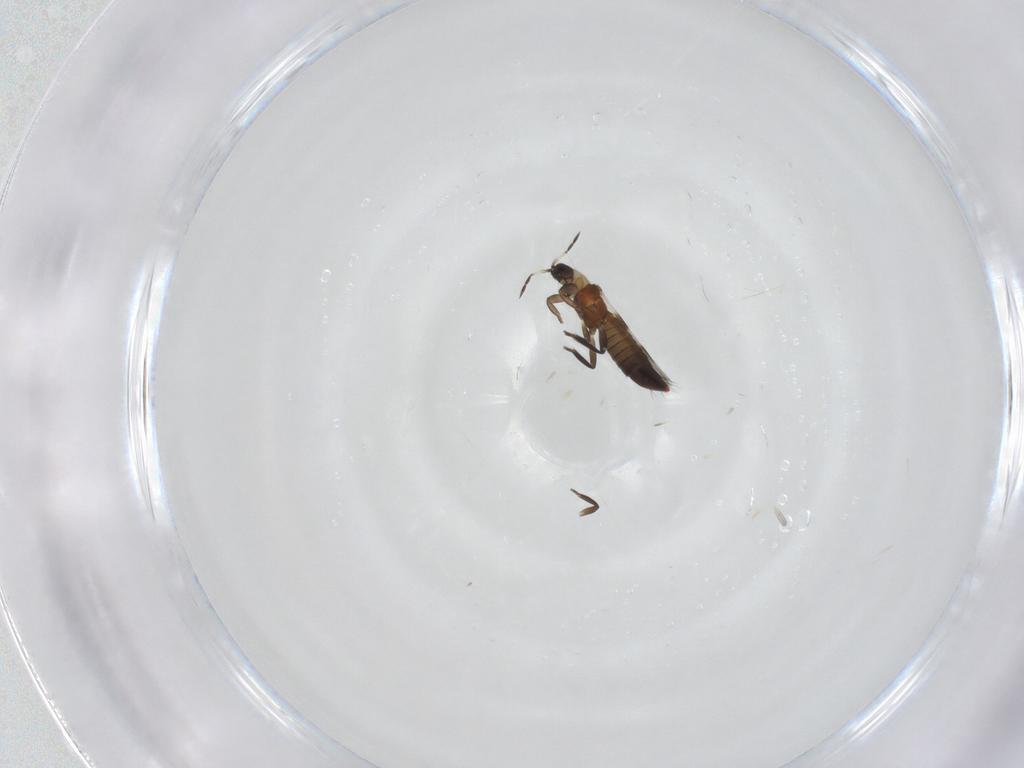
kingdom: Animalia
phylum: Arthropoda
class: Insecta
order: Thysanoptera
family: Aeolothripidae
